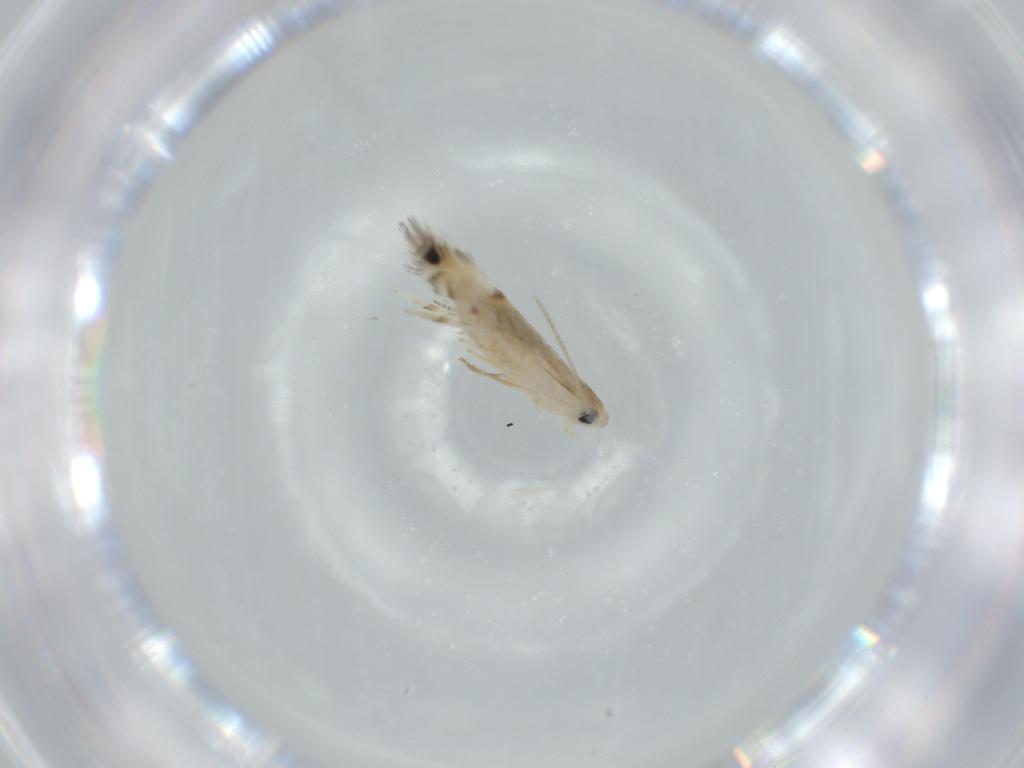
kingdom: Animalia
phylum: Arthropoda
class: Insecta
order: Lepidoptera
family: Gracillariidae
